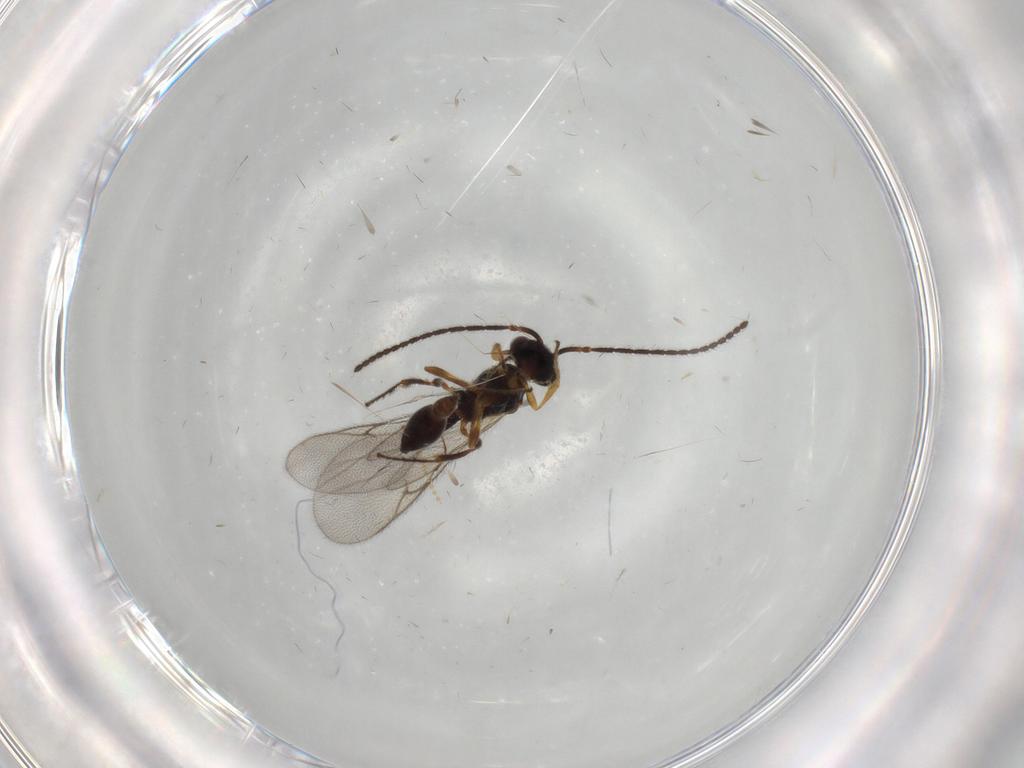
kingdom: Animalia
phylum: Arthropoda
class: Insecta
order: Hymenoptera
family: Diapriidae
